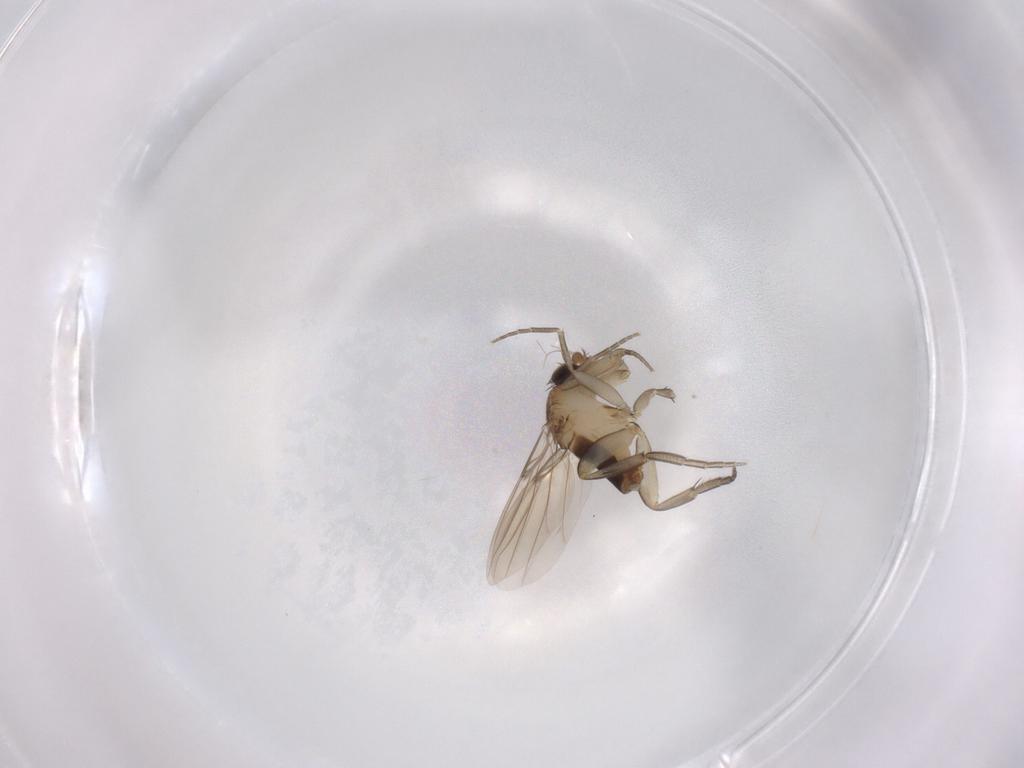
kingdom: Animalia
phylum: Arthropoda
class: Insecta
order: Diptera
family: Phoridae
